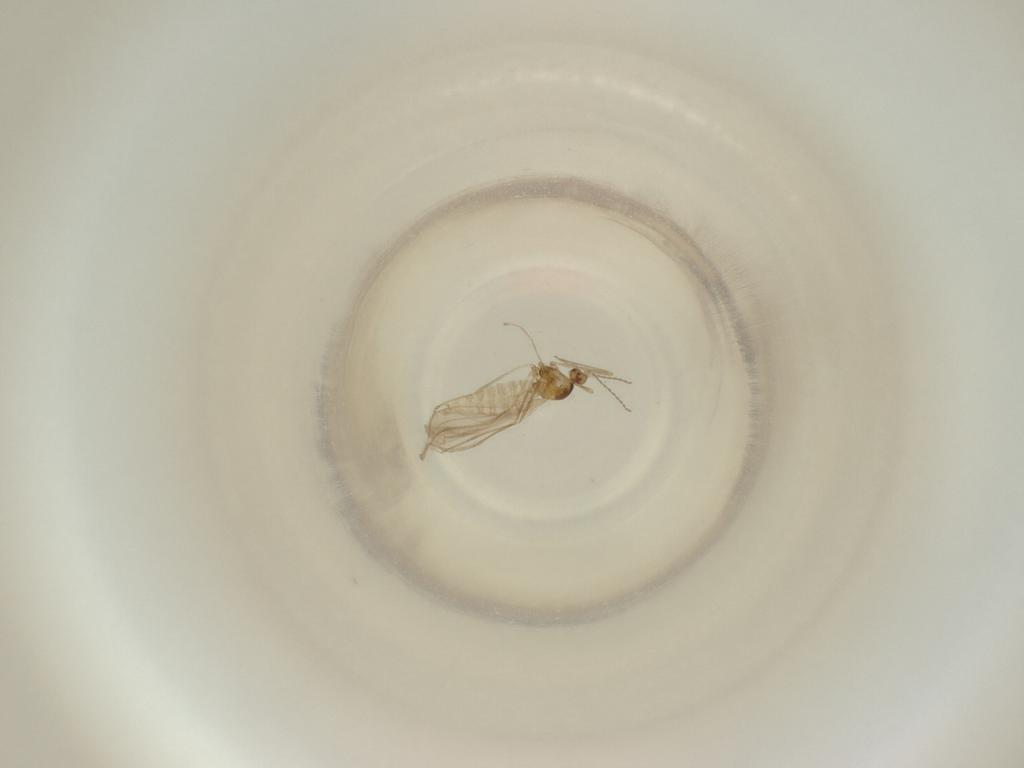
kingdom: Animalia
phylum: Arthropoda
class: Insecta
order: Diptera
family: Cecidomyiidae
